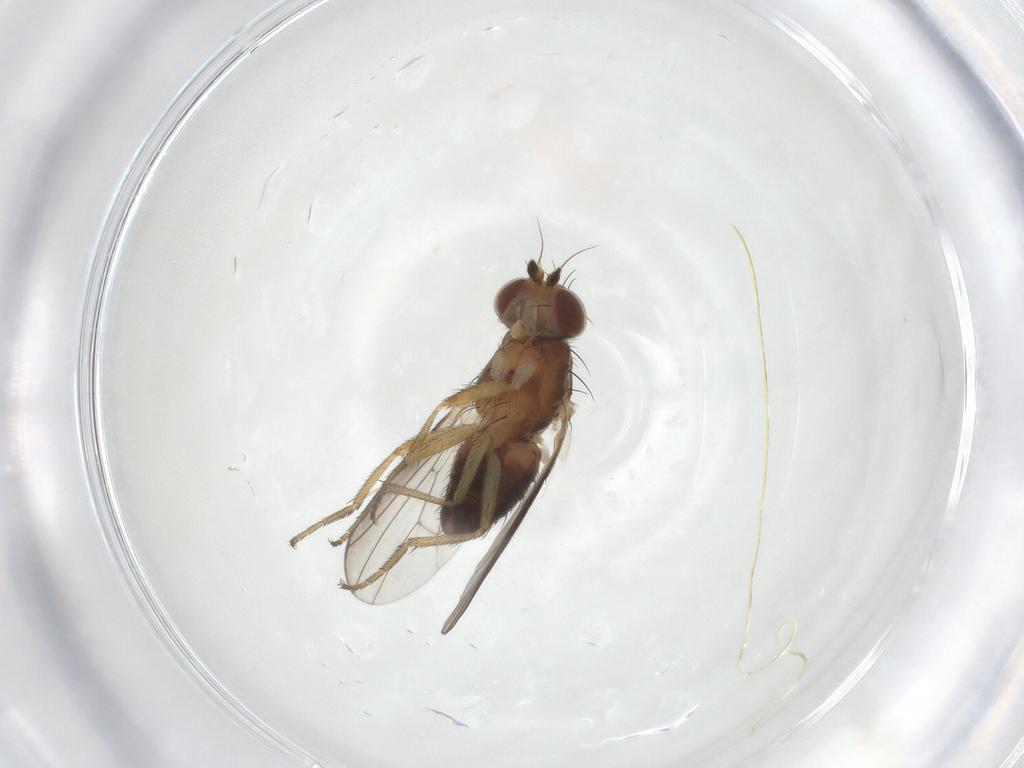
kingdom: Animalia
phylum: Arthropoda
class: Insecta
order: Diptera
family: Heleomyzidae
